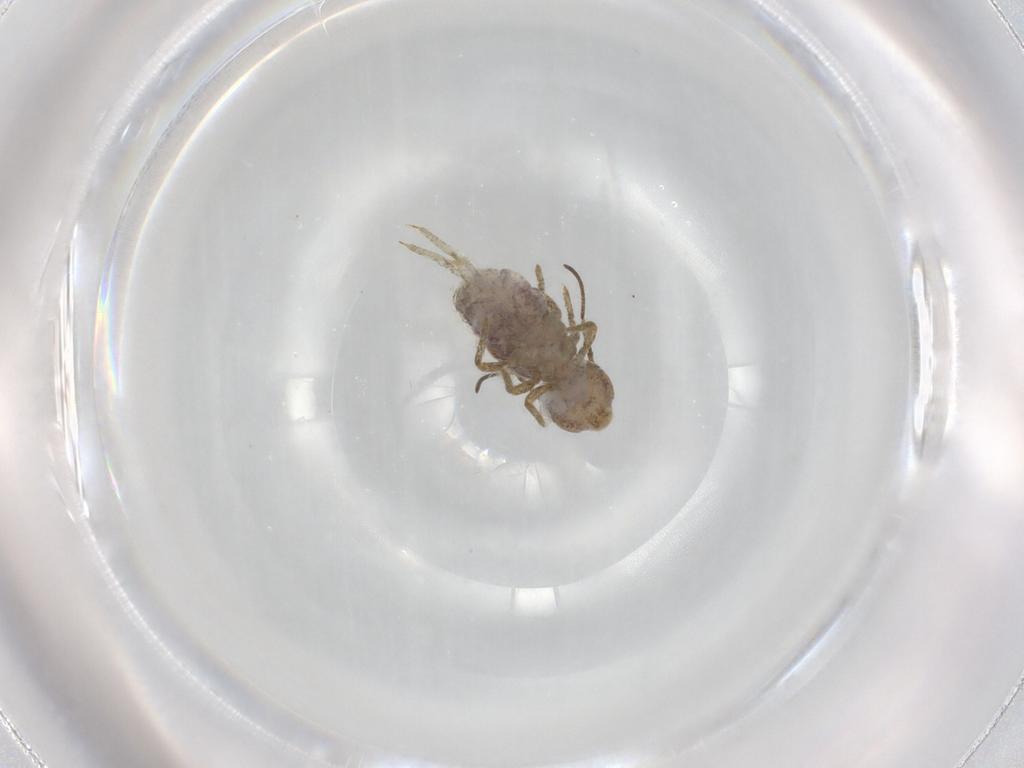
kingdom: Animalia
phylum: Arthropoda
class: Collembola
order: Symphypleona
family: Sminthuridae
